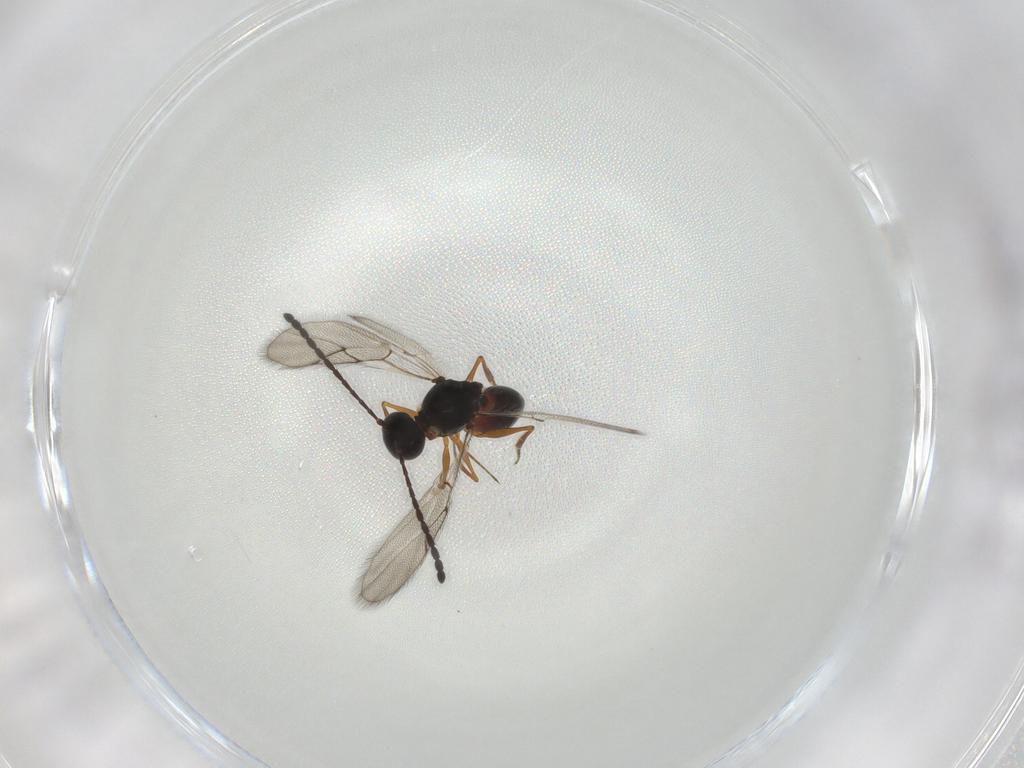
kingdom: Animalia
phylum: Arthropoda
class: Insecta
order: Hymenoptera
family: Figitidae
